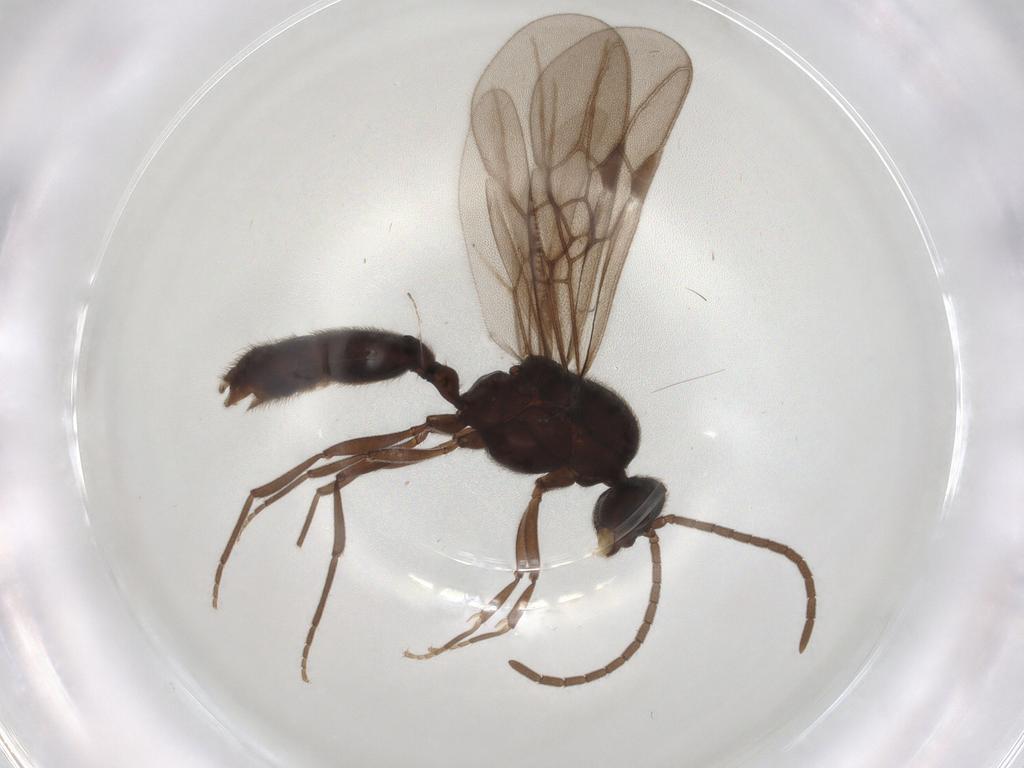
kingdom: Animalia
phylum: Arthropoda
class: Insecta
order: Hymenoptera
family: Formicidae
